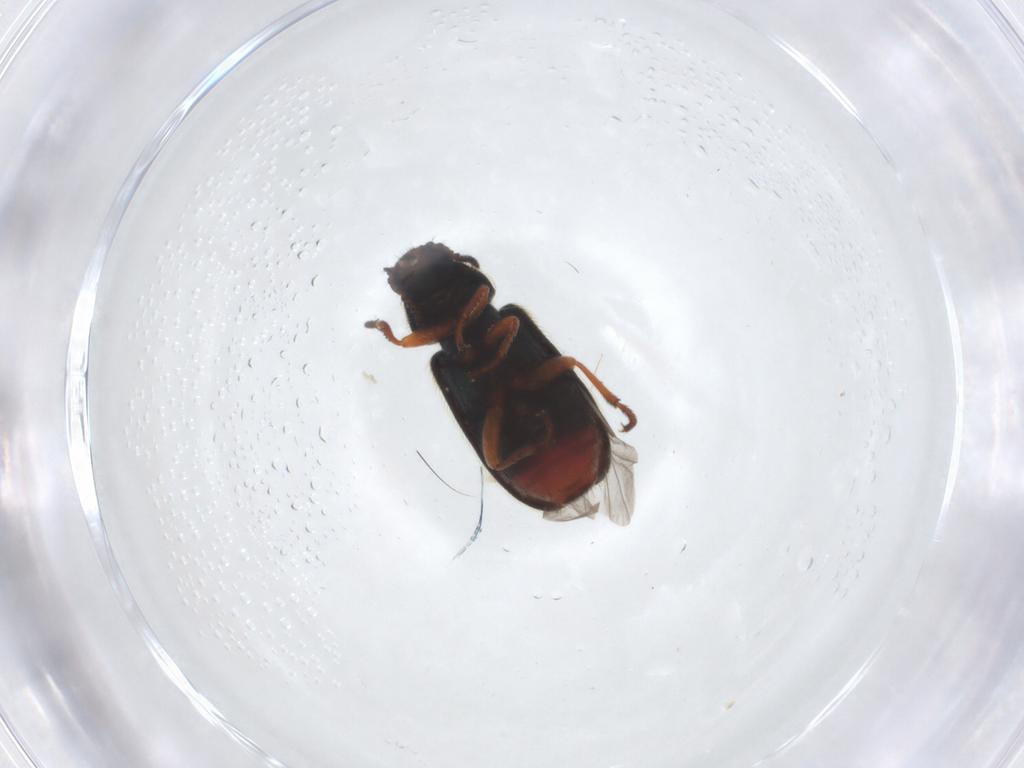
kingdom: Animalia
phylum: Arthropoda
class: Insecta
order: Coleoptera
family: Melyridae
